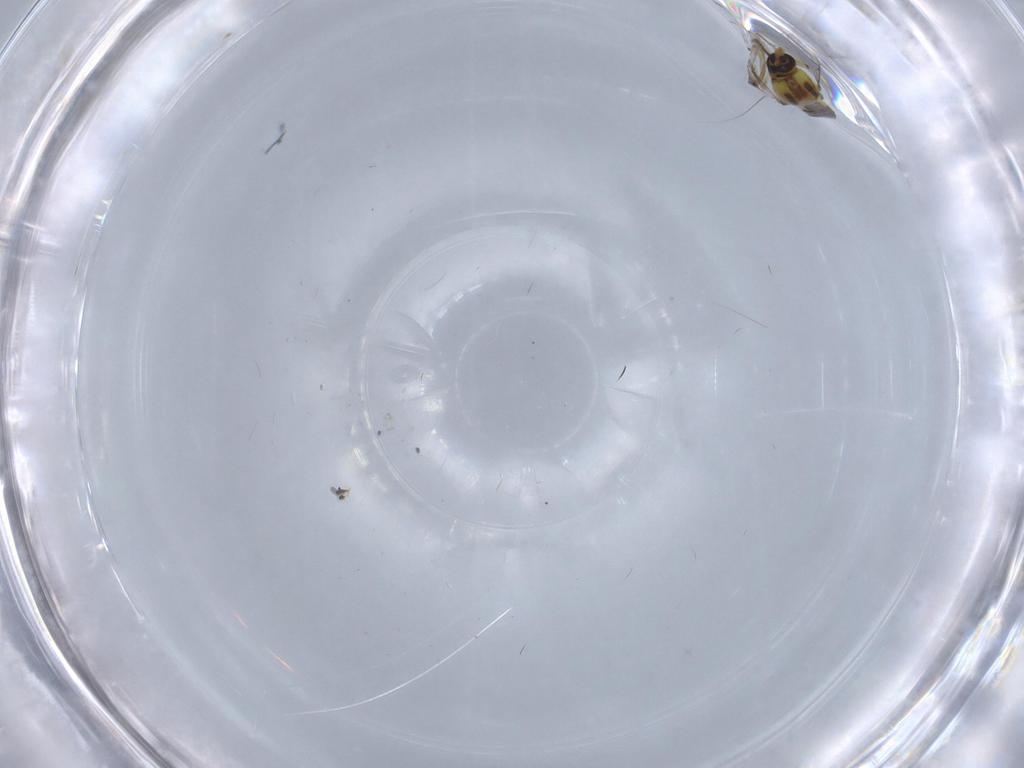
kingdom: Animalia
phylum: Arthropoda
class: Insecta
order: Diptera
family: Ceratopogonidae
